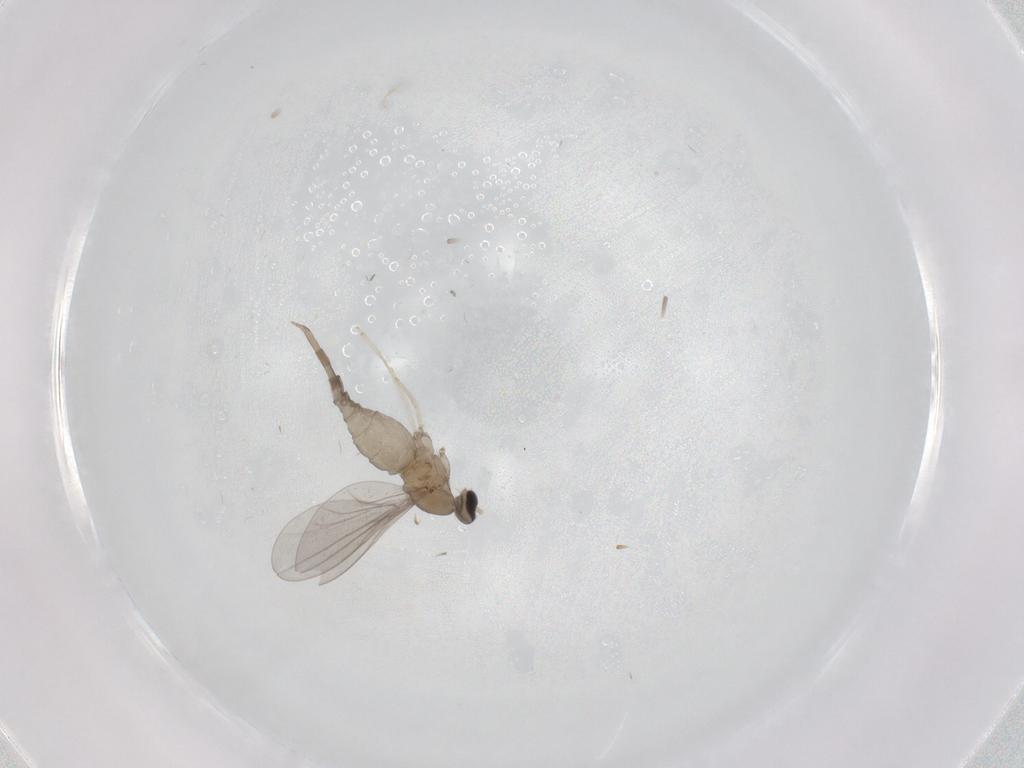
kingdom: Animalia
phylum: Arthropoda
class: Insecta
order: Diptera
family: Cecidomyiidae
